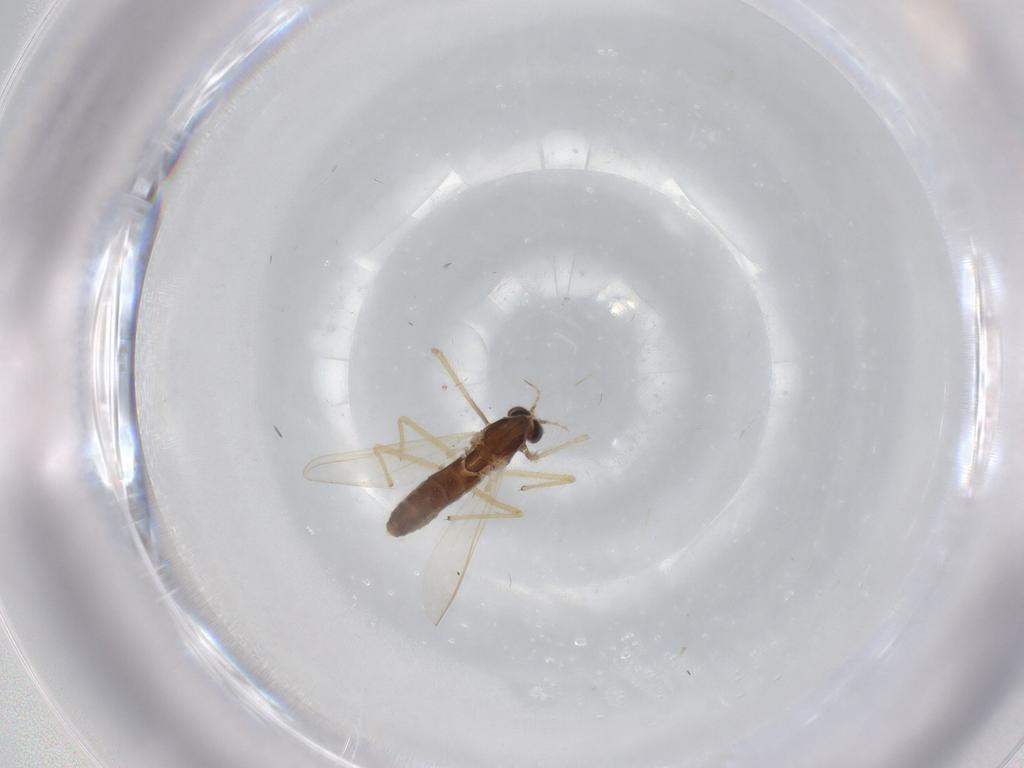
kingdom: Animalia
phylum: Arthropoda
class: Insecta
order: Diptera
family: Chironomidae
